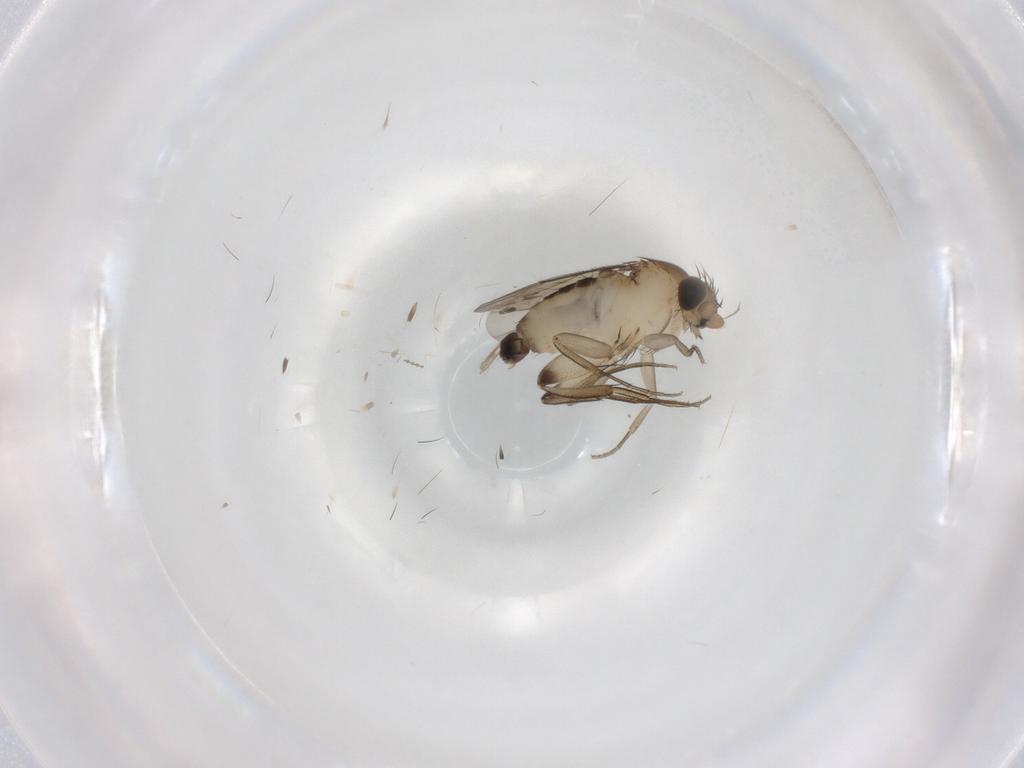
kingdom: Animalia
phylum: Arthropoda
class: Insecta
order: Diptera
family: Phoridae
